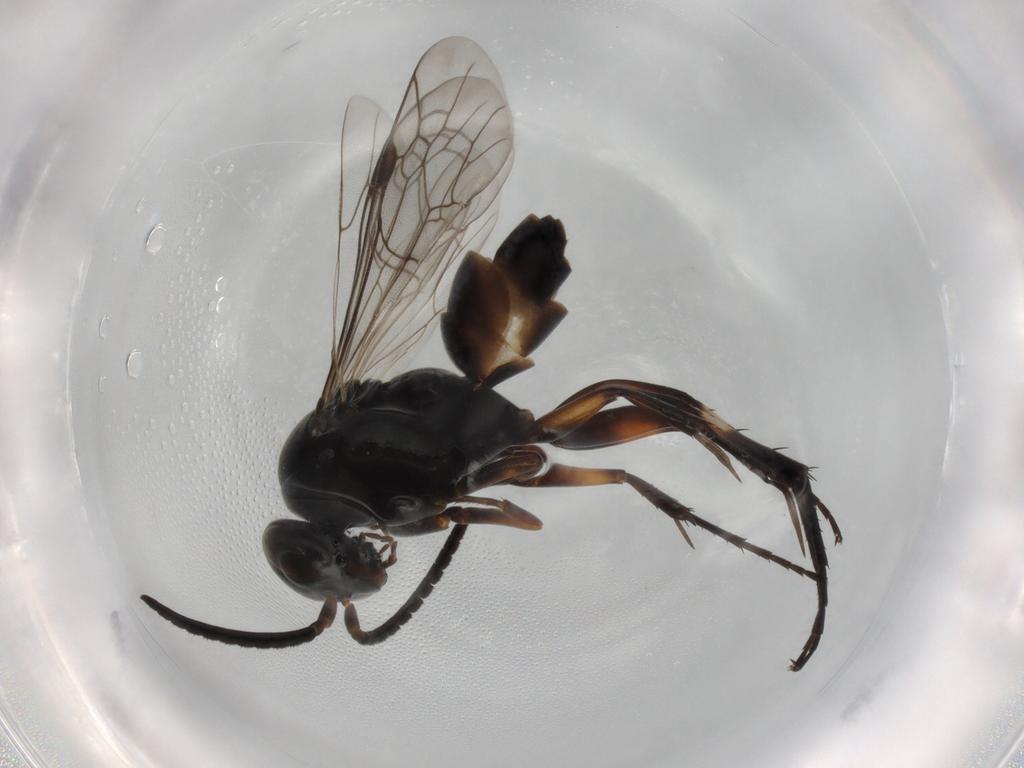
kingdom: Animalia
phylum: Arthropoda
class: Insecta
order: Hymenoptera
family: Pompilidae
